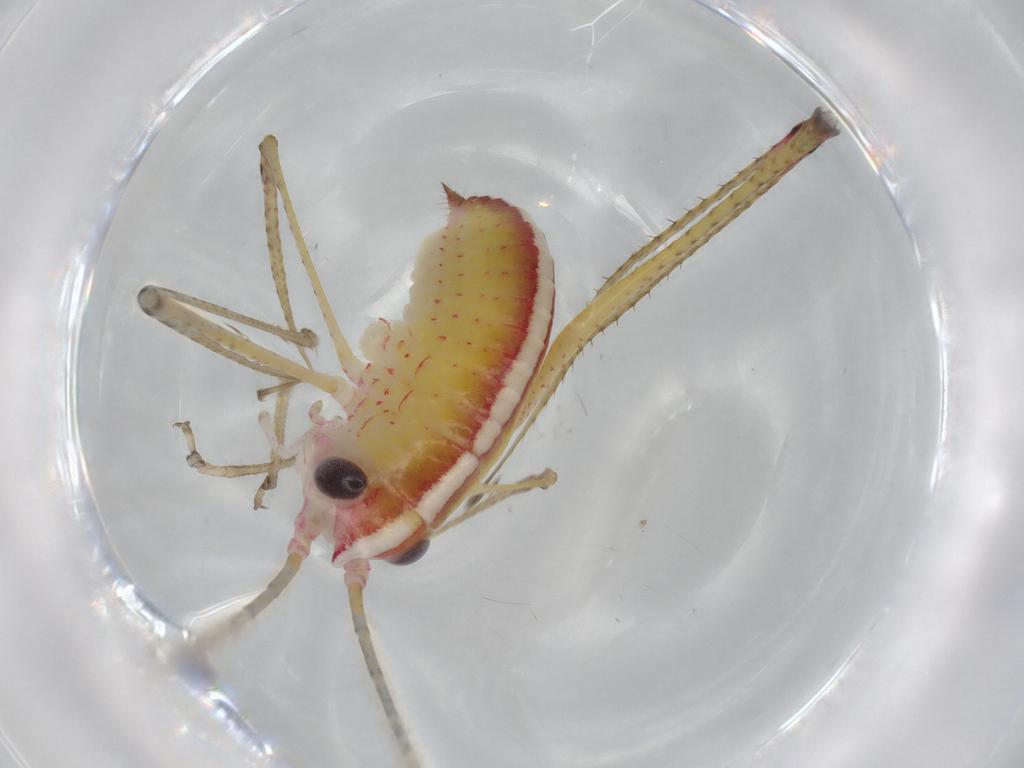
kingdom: Animalia
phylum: Arthropoda
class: Insecta
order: Orthoptera
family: Tettigoniidae
